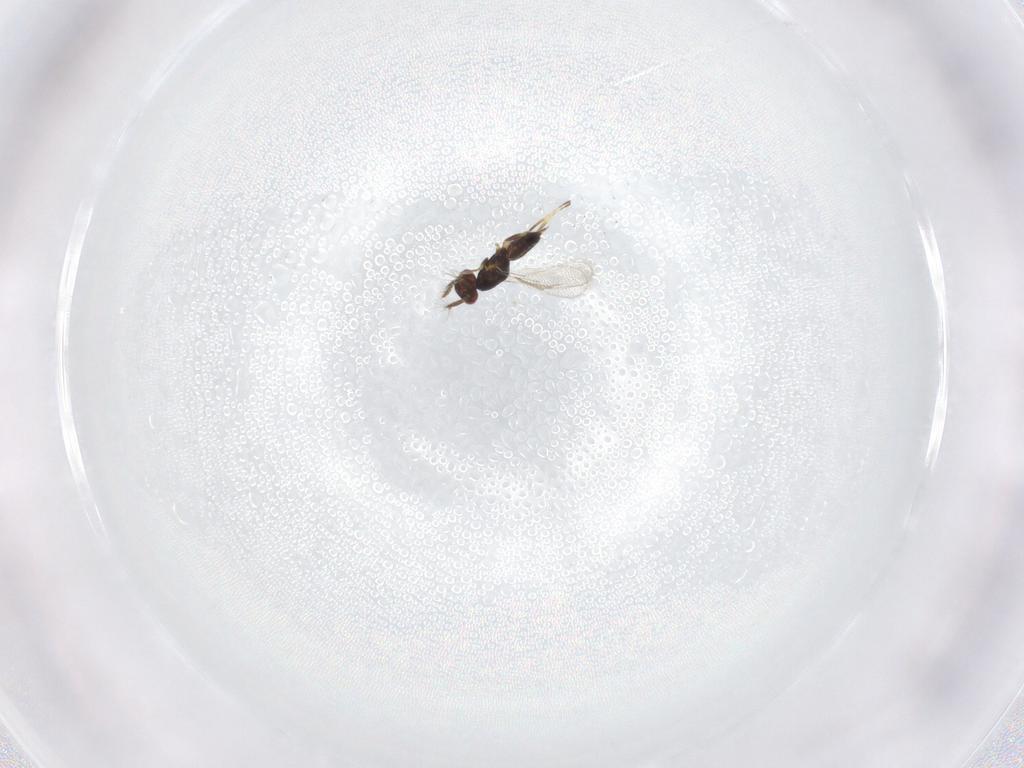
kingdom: Animalia
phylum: Arthropoda
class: Insecta
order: Hymenoptera
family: Eulophidae
